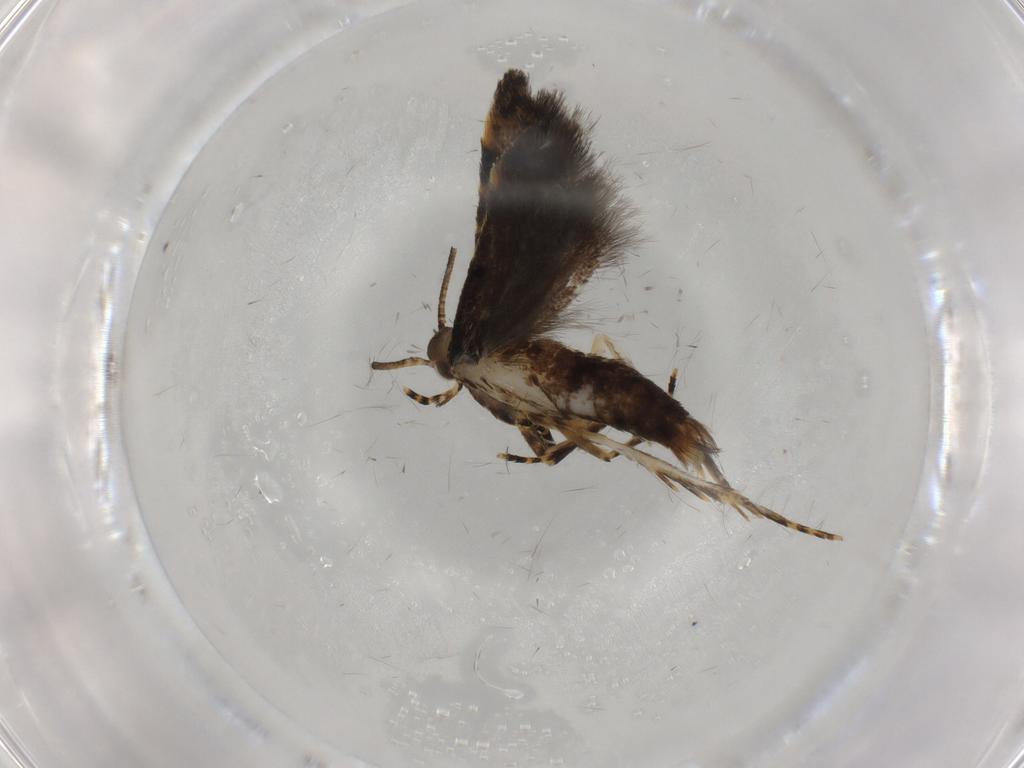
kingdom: Animalia
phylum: Arthropoda
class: Insecta
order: Lepidoptera
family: Oecophoridae
